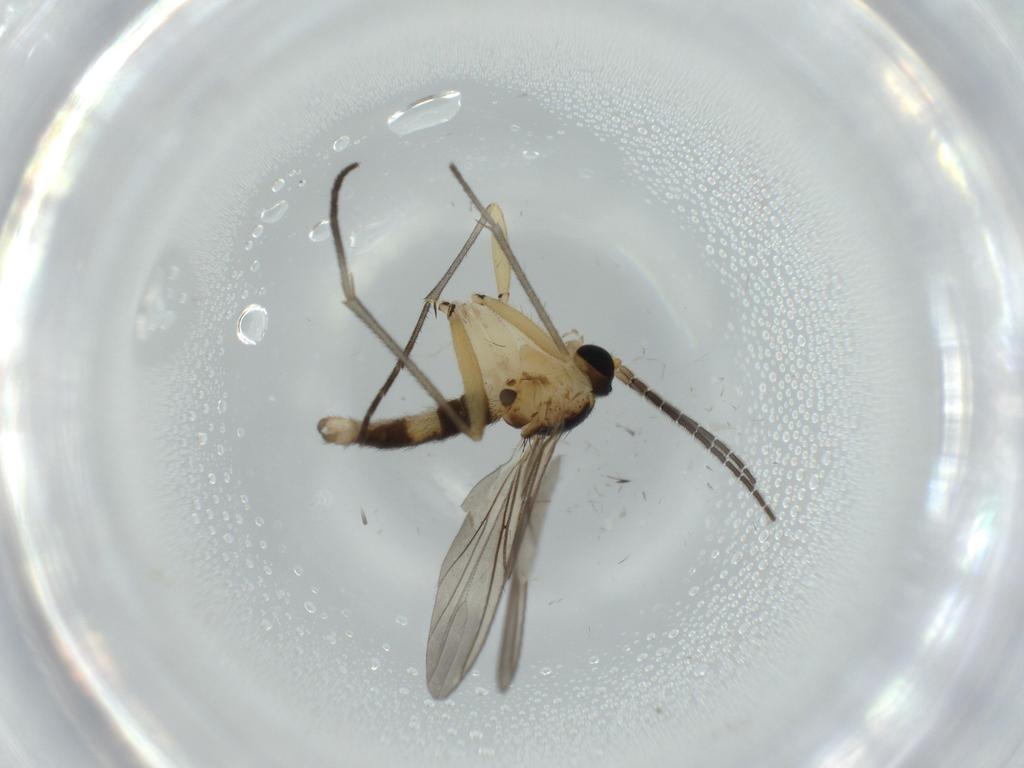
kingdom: Animalia
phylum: Arthropoda
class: Insecta
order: Diptera
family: Sciaridae
